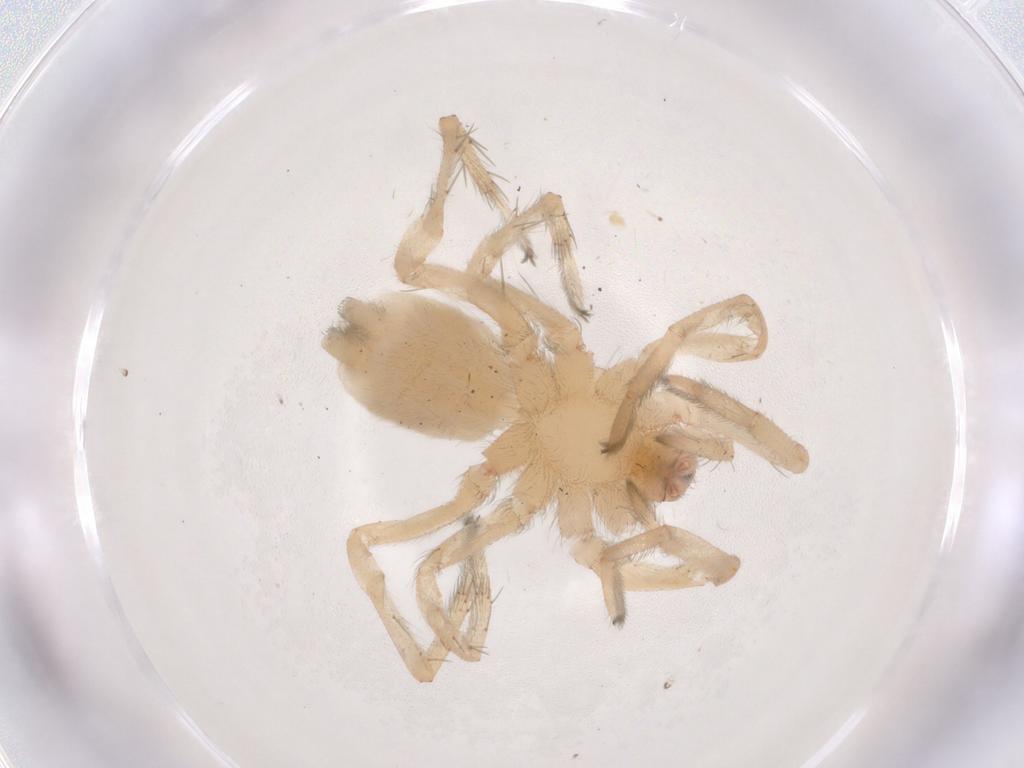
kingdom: Animalia
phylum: Arthropoda
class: Arachnida
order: Araneae
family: Gnaphosidae
